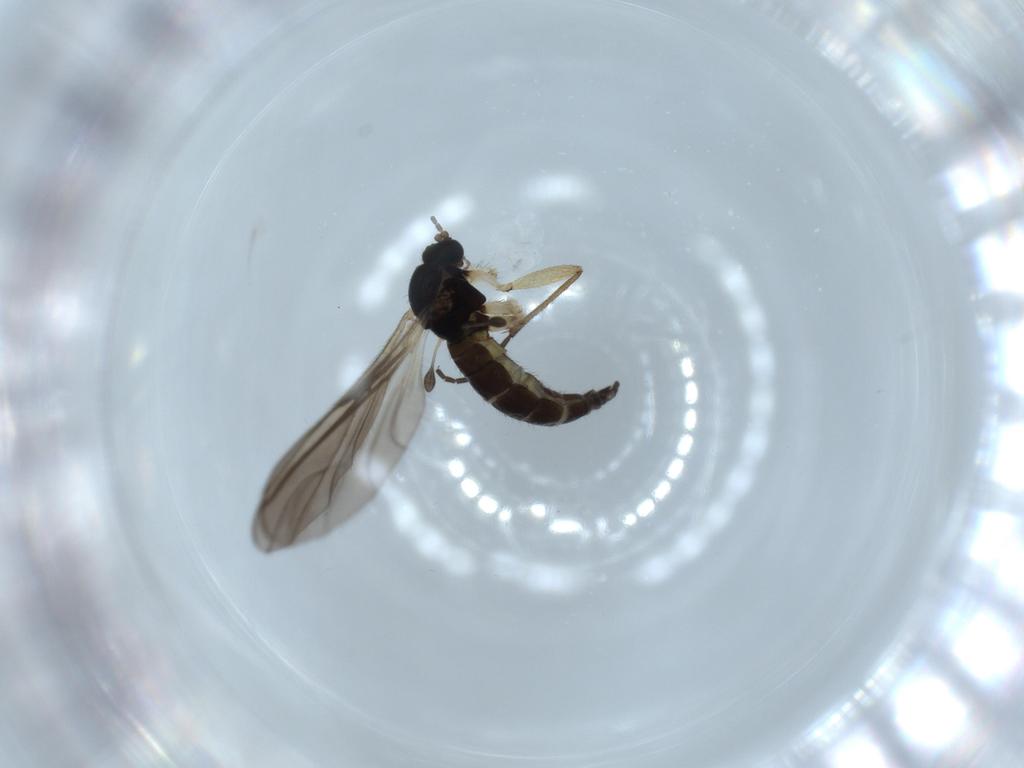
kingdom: Animalia
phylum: Arthropoda
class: Insecta
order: Diptera
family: Sciaridae
